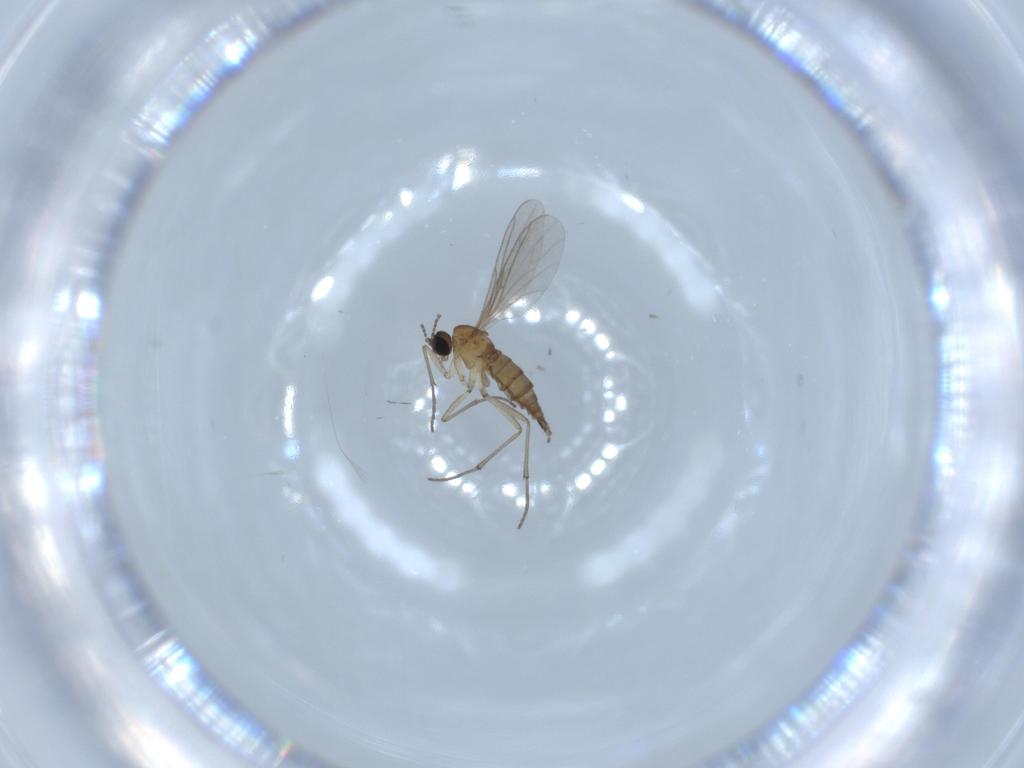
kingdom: Animalia
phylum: Arthropoda
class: Insecta
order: Diptera
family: Sciaridae
